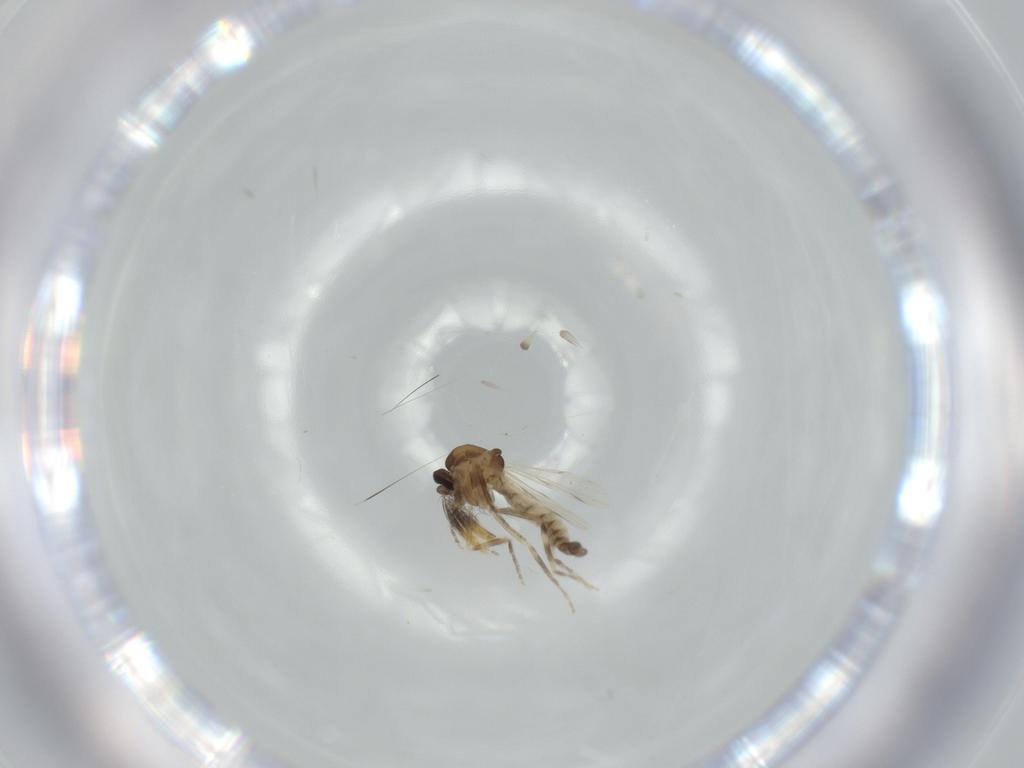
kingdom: Animalia
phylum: Arthropoda
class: Insecta
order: Diptera
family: Ceratopogonidae
